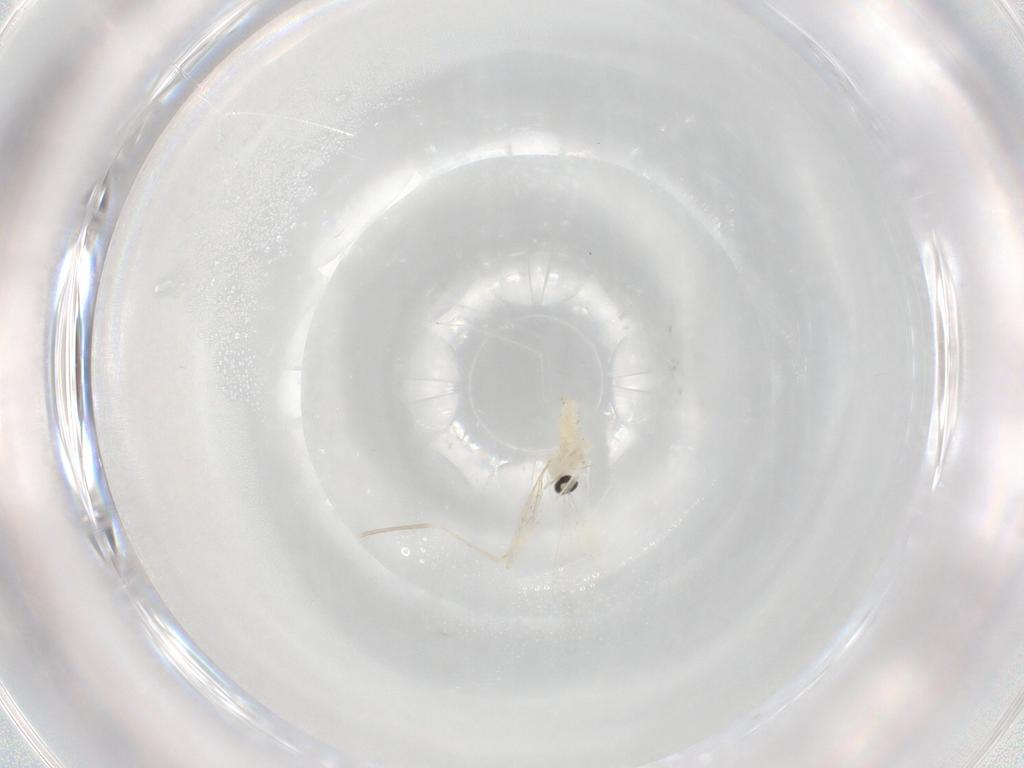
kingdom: Animalia
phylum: Arthropoda
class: Insecta
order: Diptera
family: Cecidomyiidae
